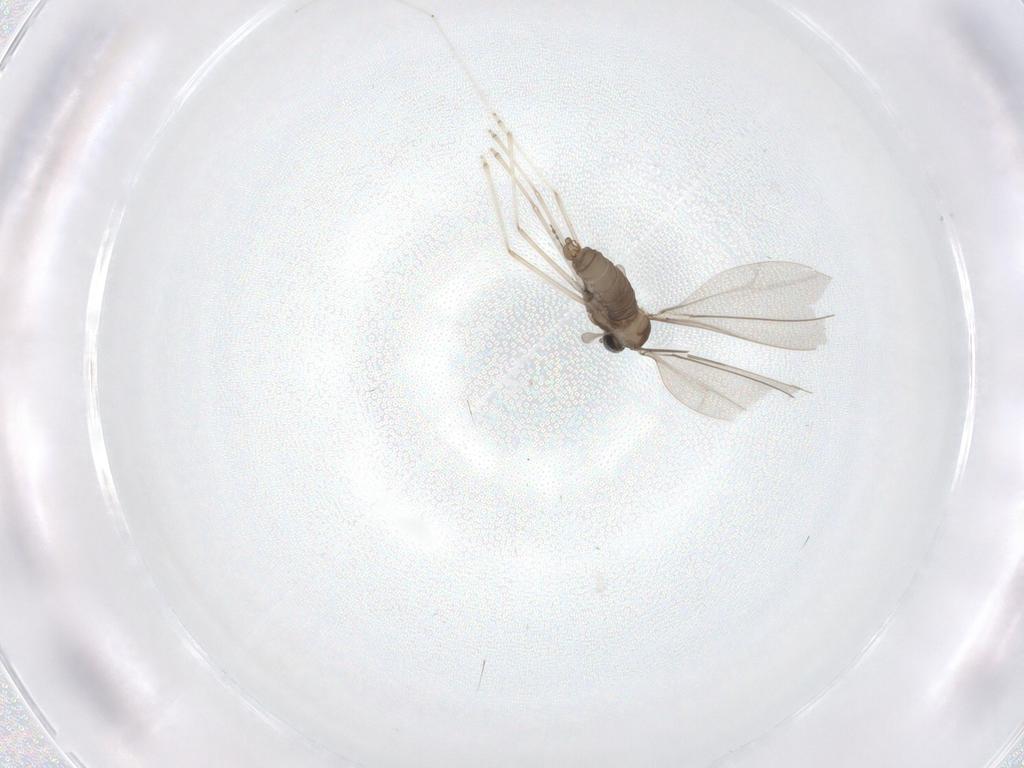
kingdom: Animalia
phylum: Arthropoda
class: Insecta
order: Diptera
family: Cecidomyiidae
